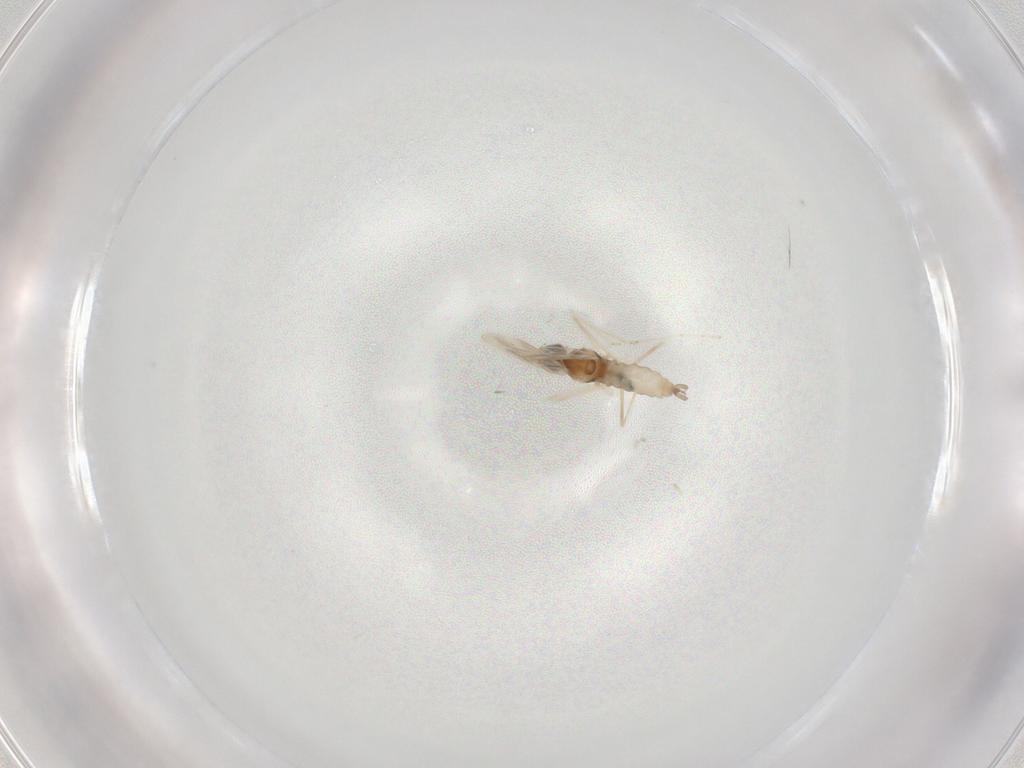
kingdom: Animalia
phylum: Arthropoda
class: Insecta
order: Diptera
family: Cecidomyiidae
